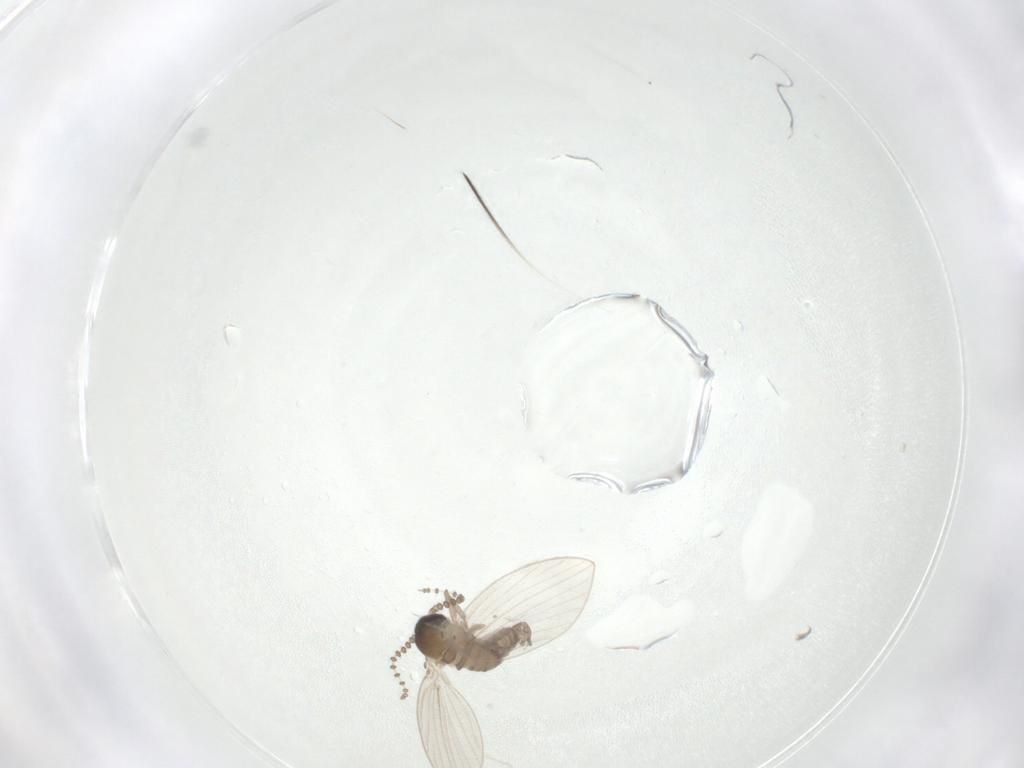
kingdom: Animalia
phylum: Arthropoda
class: Insecta
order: Diptera
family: Psychodidae
